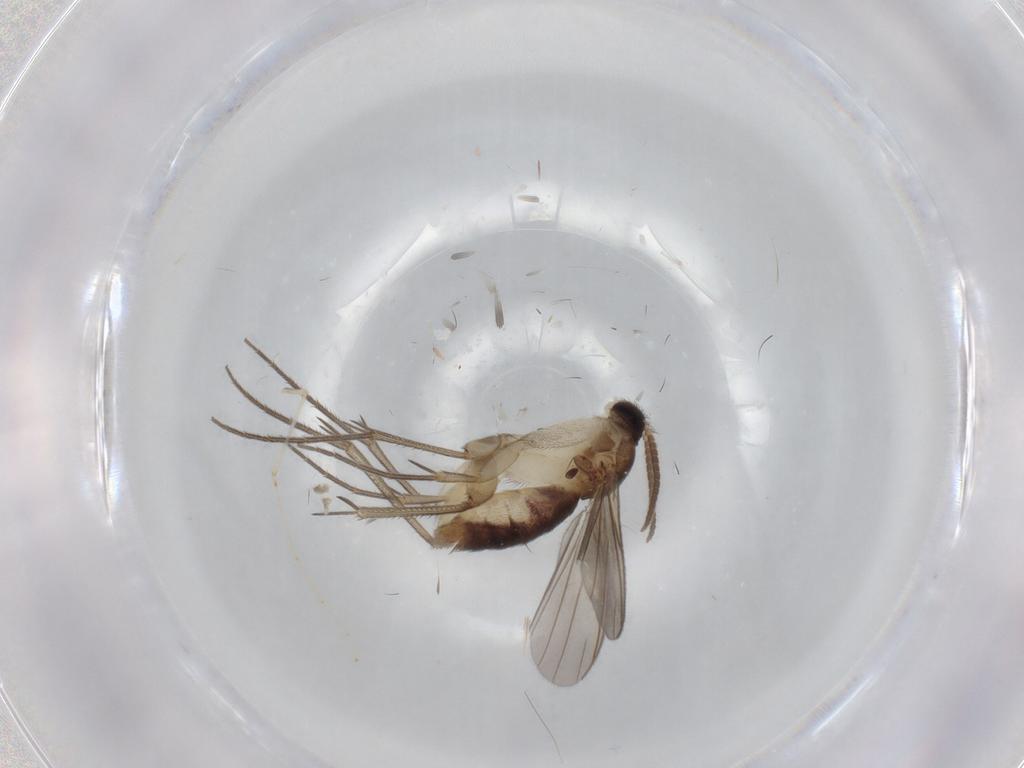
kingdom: Animalia
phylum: Arthropoda
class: Insecta
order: Diptera
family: Mycetophilidae
